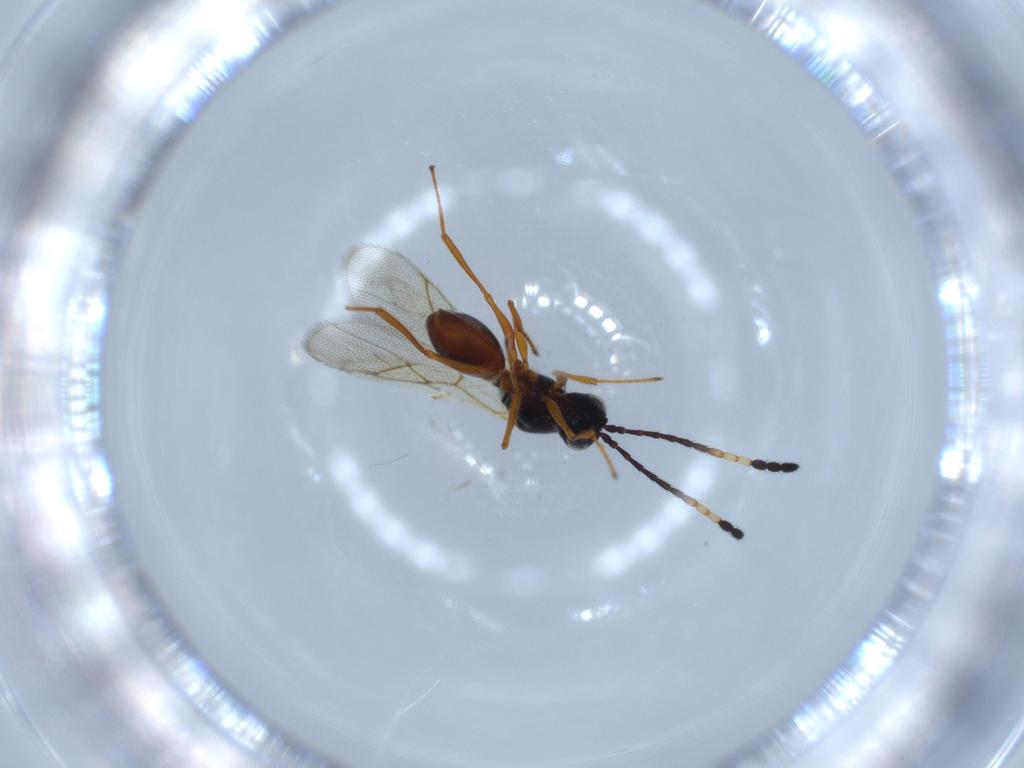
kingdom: Animalia
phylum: Arthropoda
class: Insecta
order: Hymenoptera
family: Figitidae
